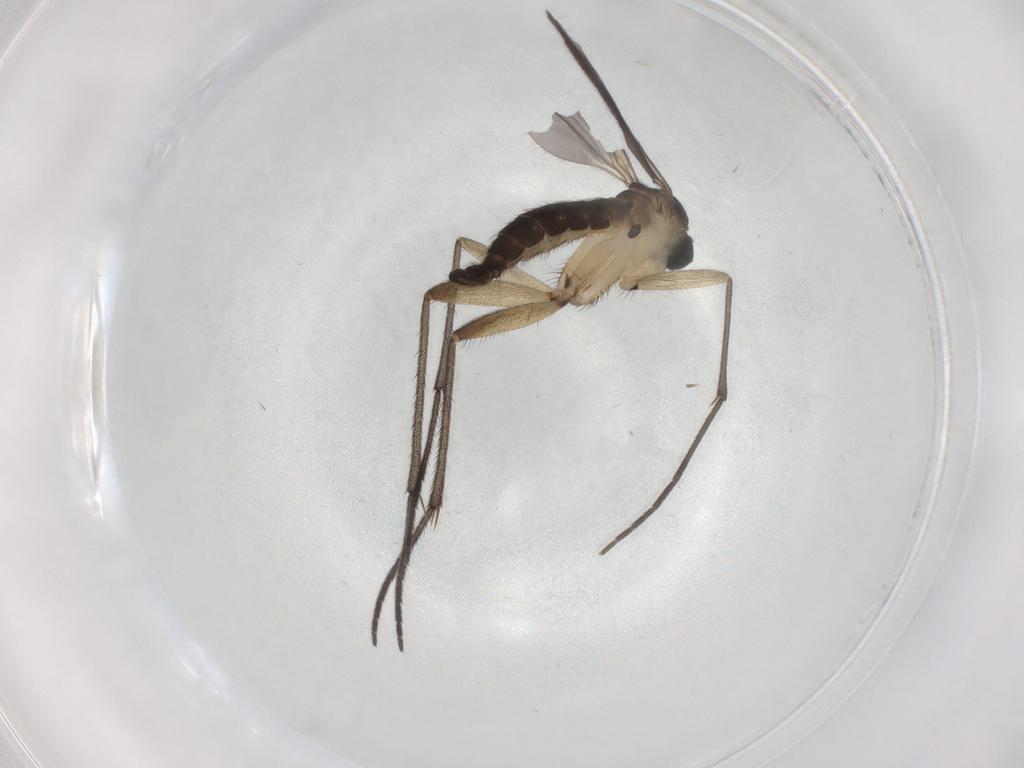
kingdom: Animalia
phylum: Arthropoda
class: Insecta
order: Diptera
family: Sciaridae
